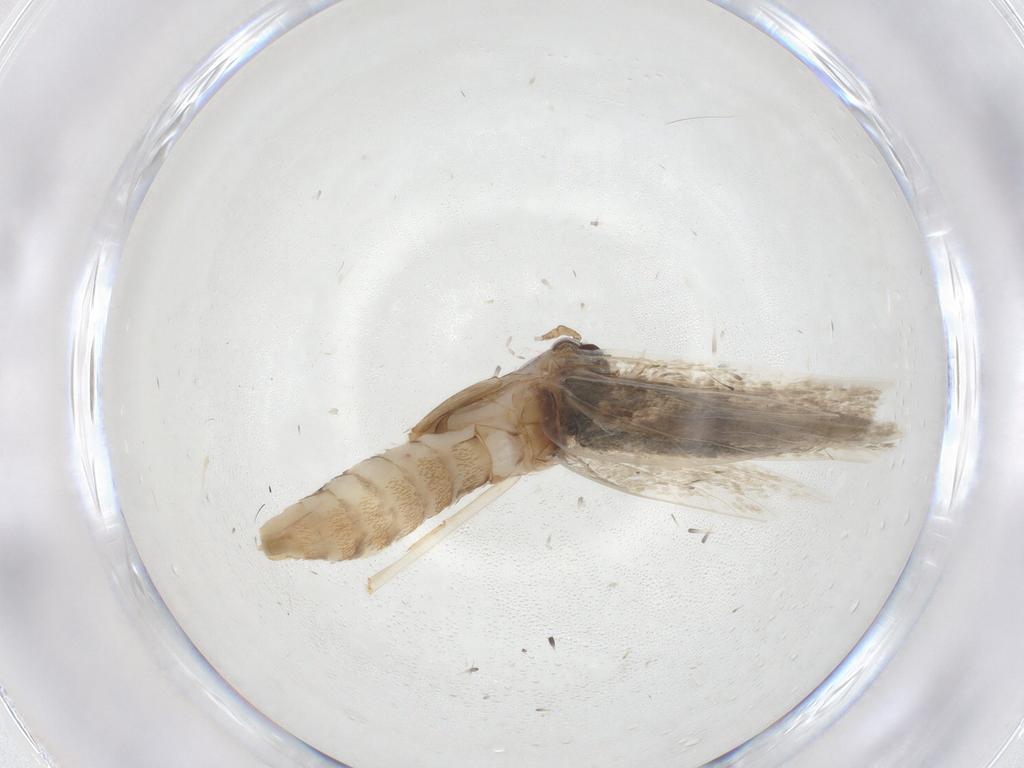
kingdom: Animalia
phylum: Arthropoda
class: Insecta
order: Lepidoptera
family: Erebidae
